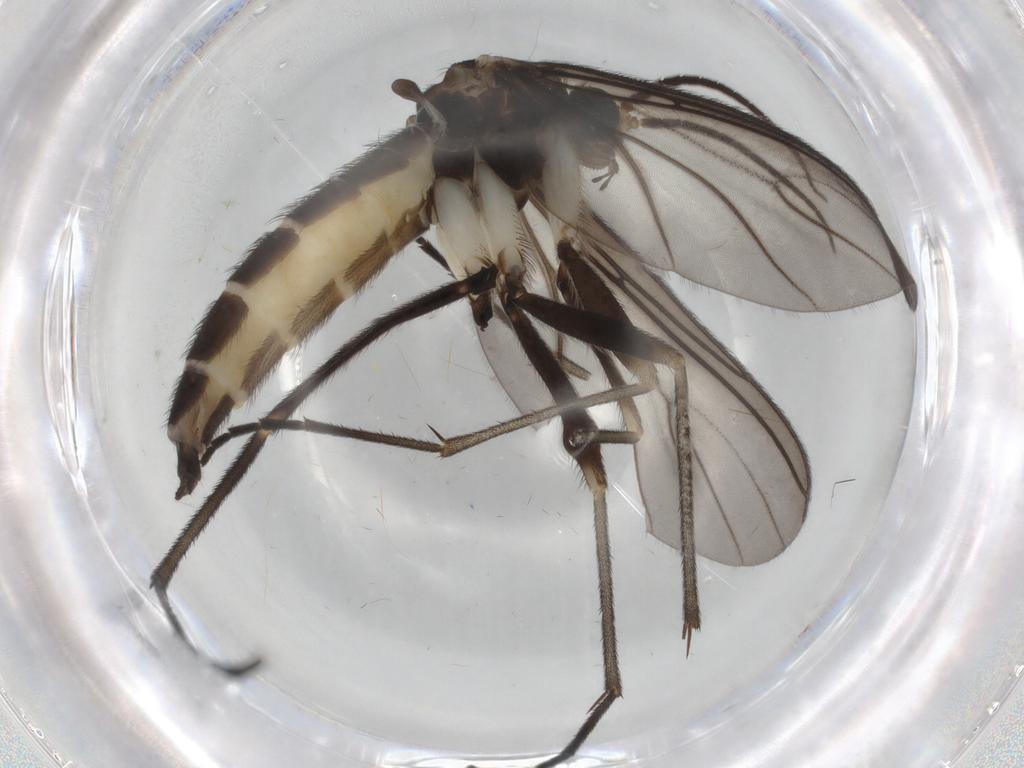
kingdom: Animalia
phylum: Arthropoda
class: Insecta
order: Diptera
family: Sciaridae
